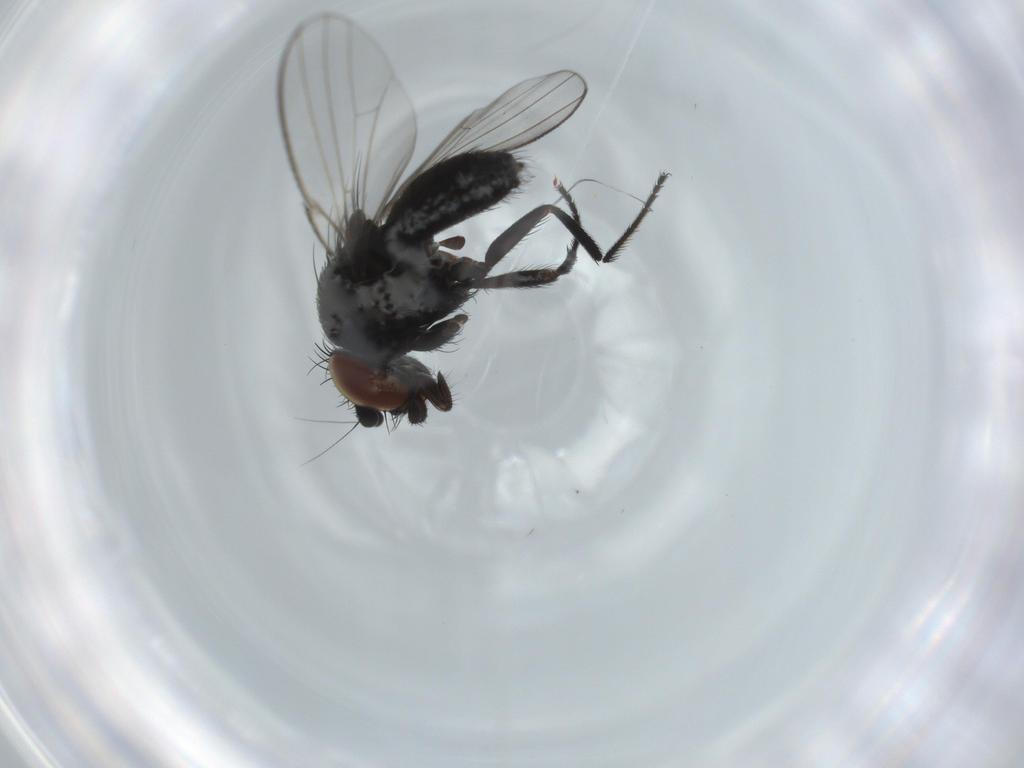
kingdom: Animalia
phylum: Arthropoda
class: Insecta
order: Diptera
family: Milichiidae
